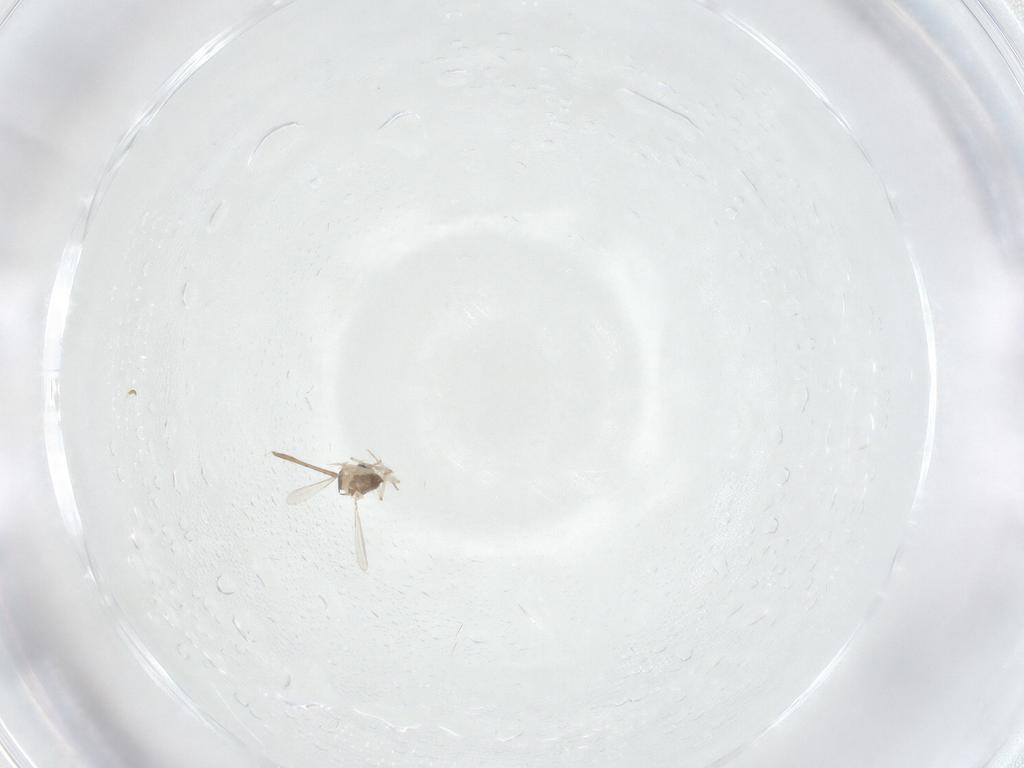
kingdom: Animalia
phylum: Arthropoda
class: Insecta
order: Diptera
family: Ceratopogonidae
